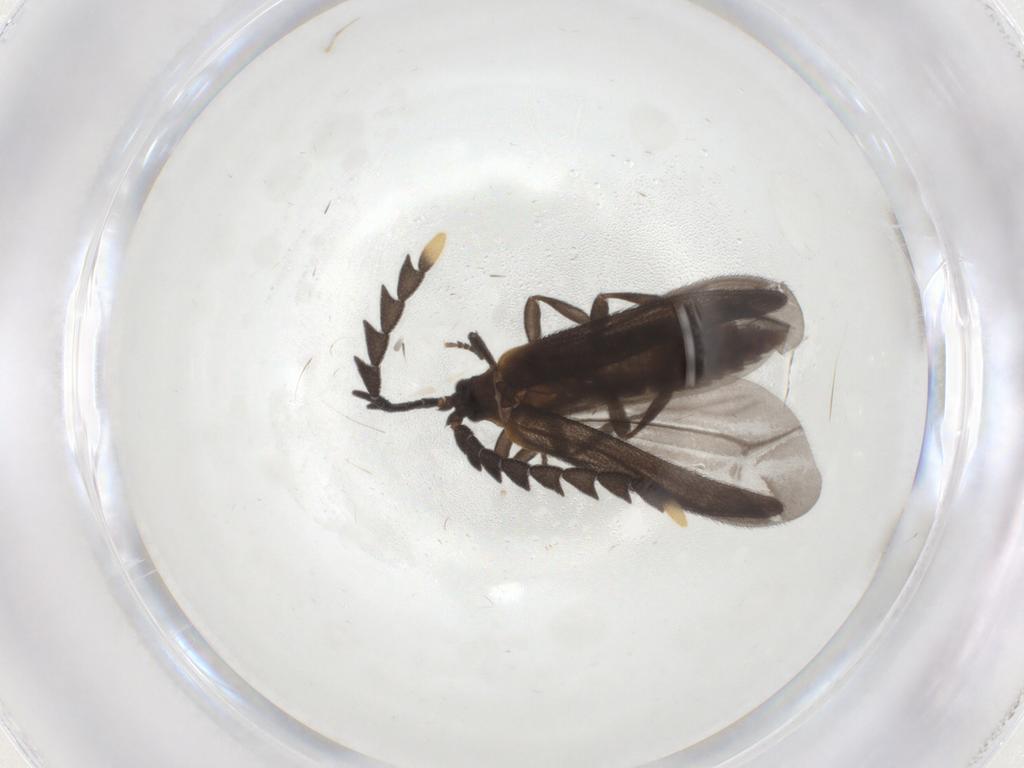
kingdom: Animalia
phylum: Arthropoda
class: Insecta
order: Coleoptera
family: Lycidae
